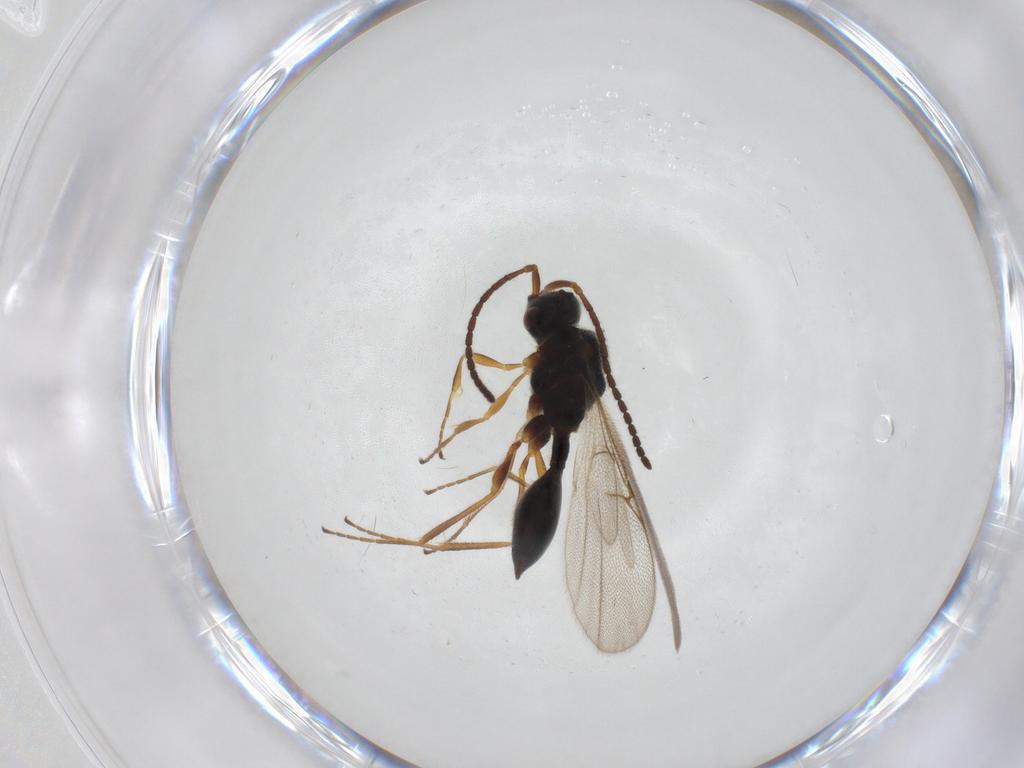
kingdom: Animalia
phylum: Arthropoda
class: Insecta
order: Hymenoptera
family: Diapriidae
